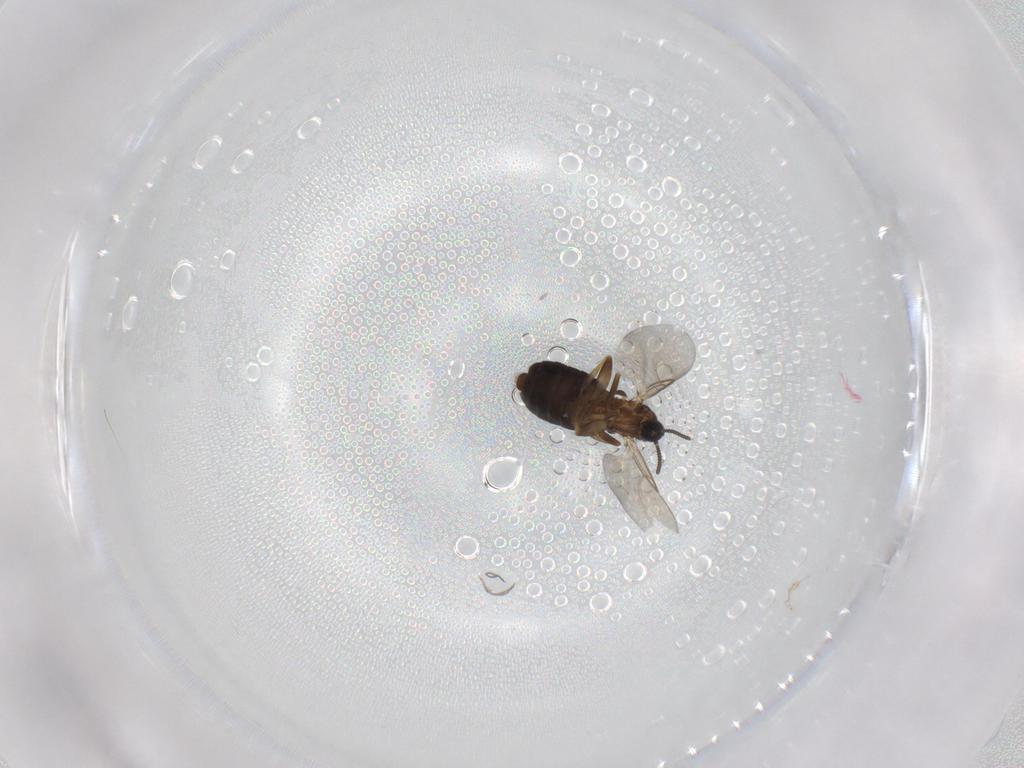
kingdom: Animalia
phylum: Arthropoda
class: Insecta
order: Diptera
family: Scatopsidae
